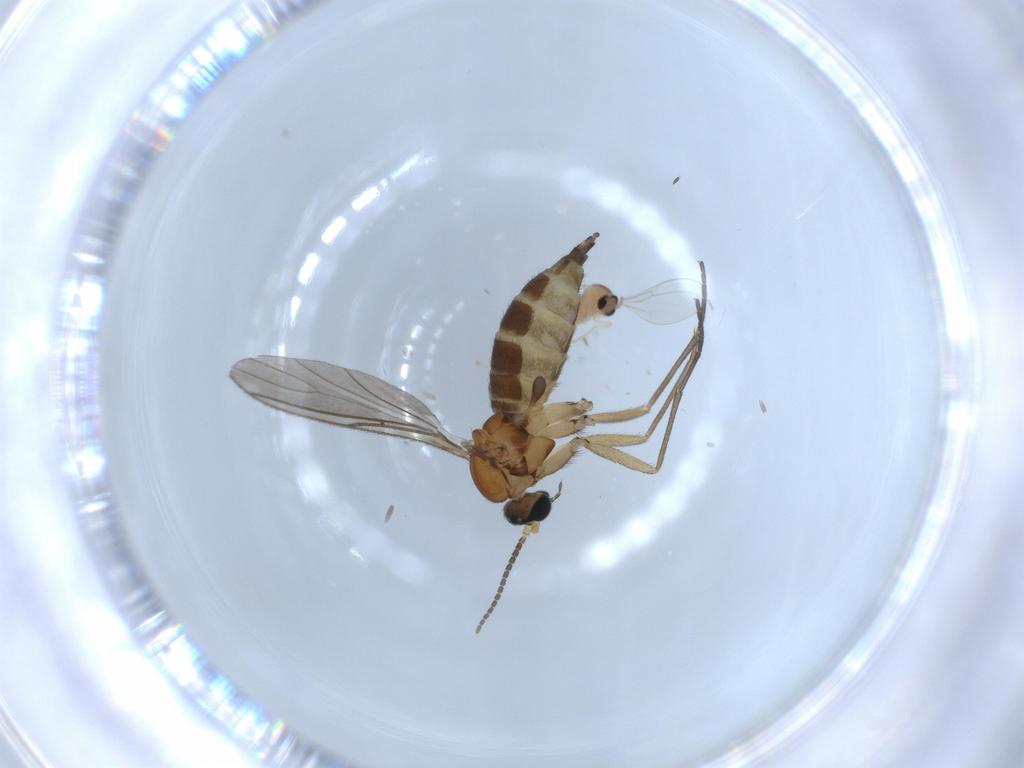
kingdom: Animalia
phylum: Arthropoda
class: Insecta
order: Diptera
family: Sciaridae
